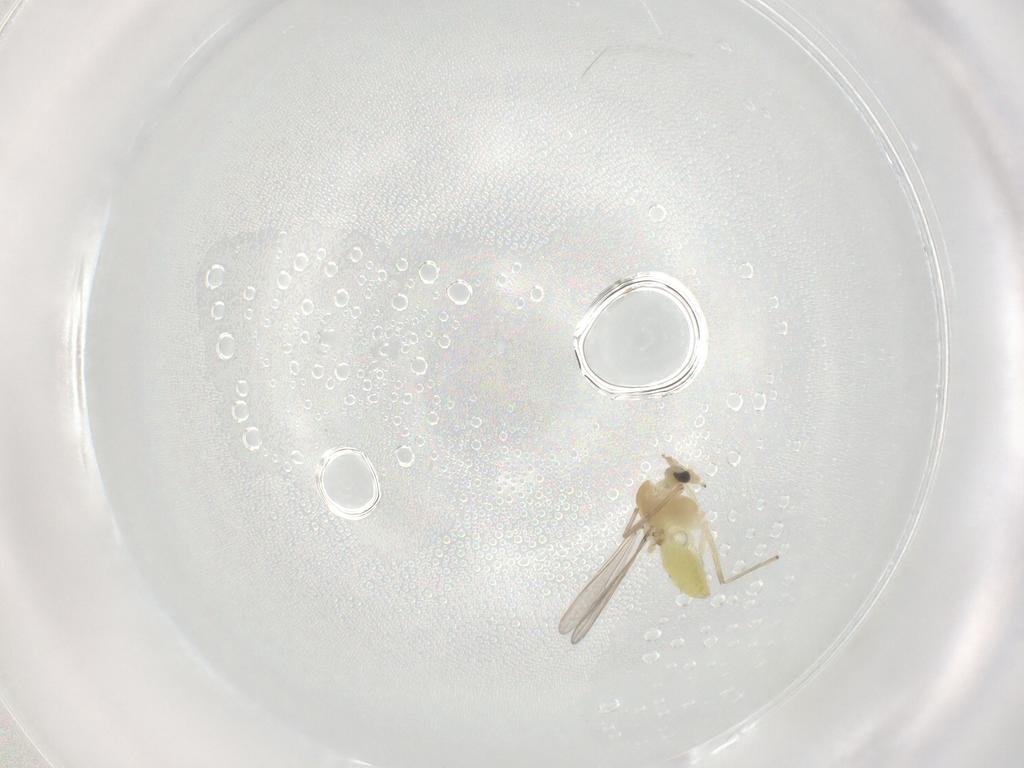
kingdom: Animalia
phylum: Arthropoda
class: Insecta
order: Diptera
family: Chironomidae
